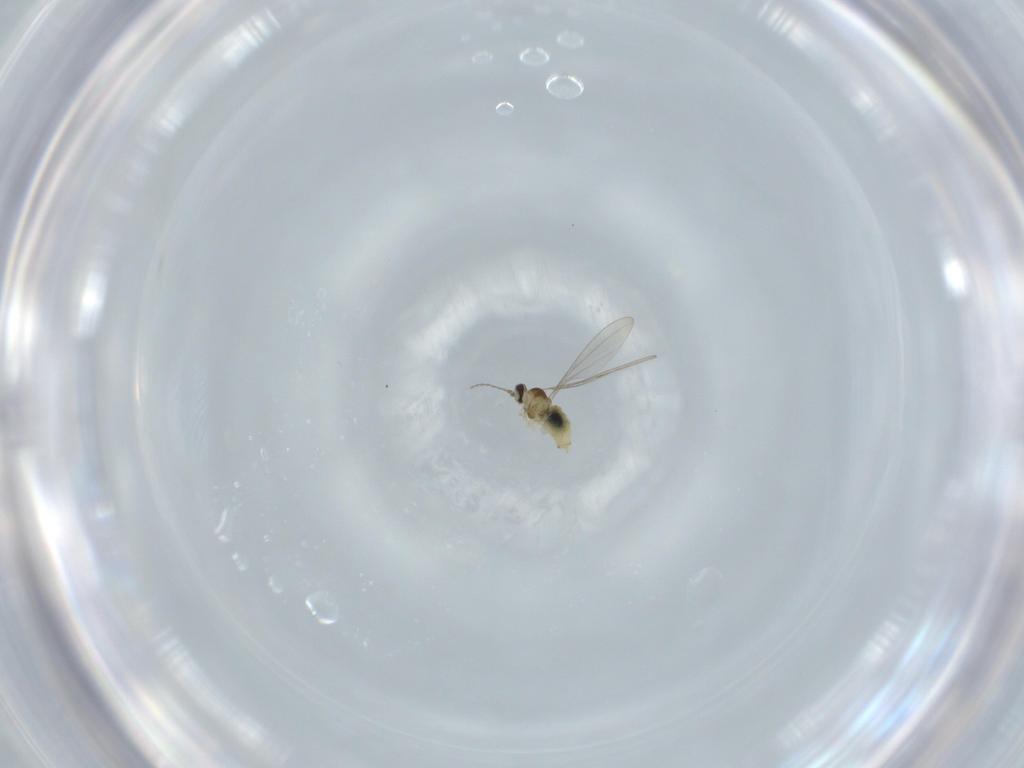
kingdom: Animalia
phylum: Arthropoda
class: Insecta
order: Diptera
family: Cecidomyiidae
